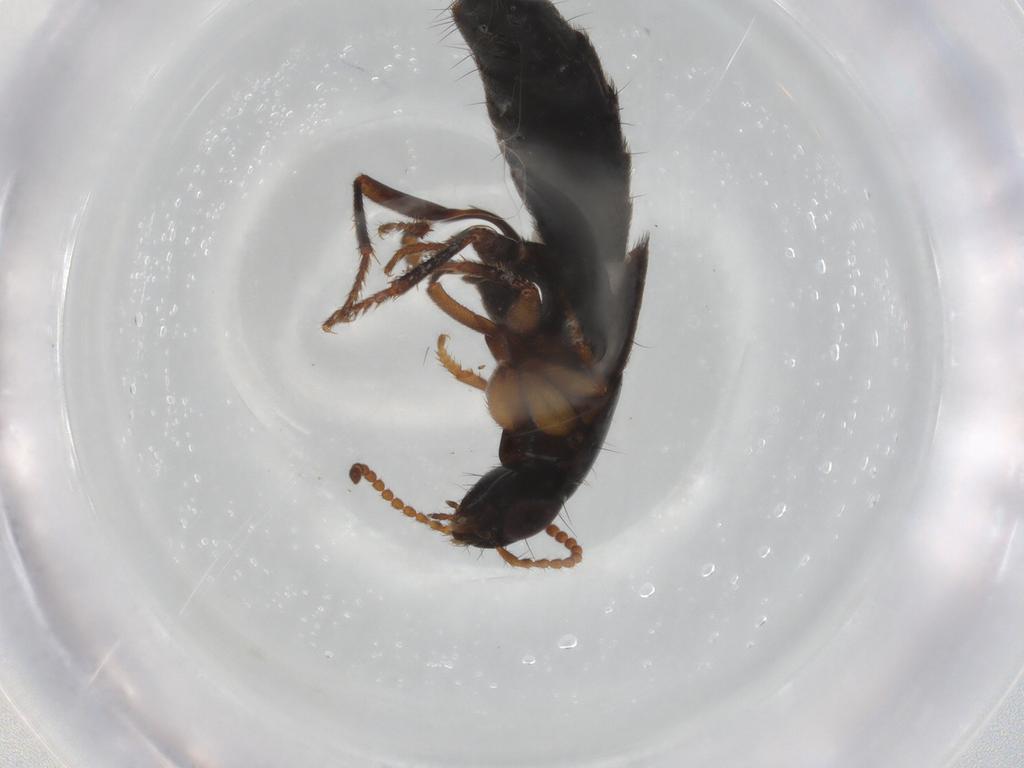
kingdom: Animalia
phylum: Arthropoda
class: Insecta
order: Coleoptera
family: Staphylinidae
